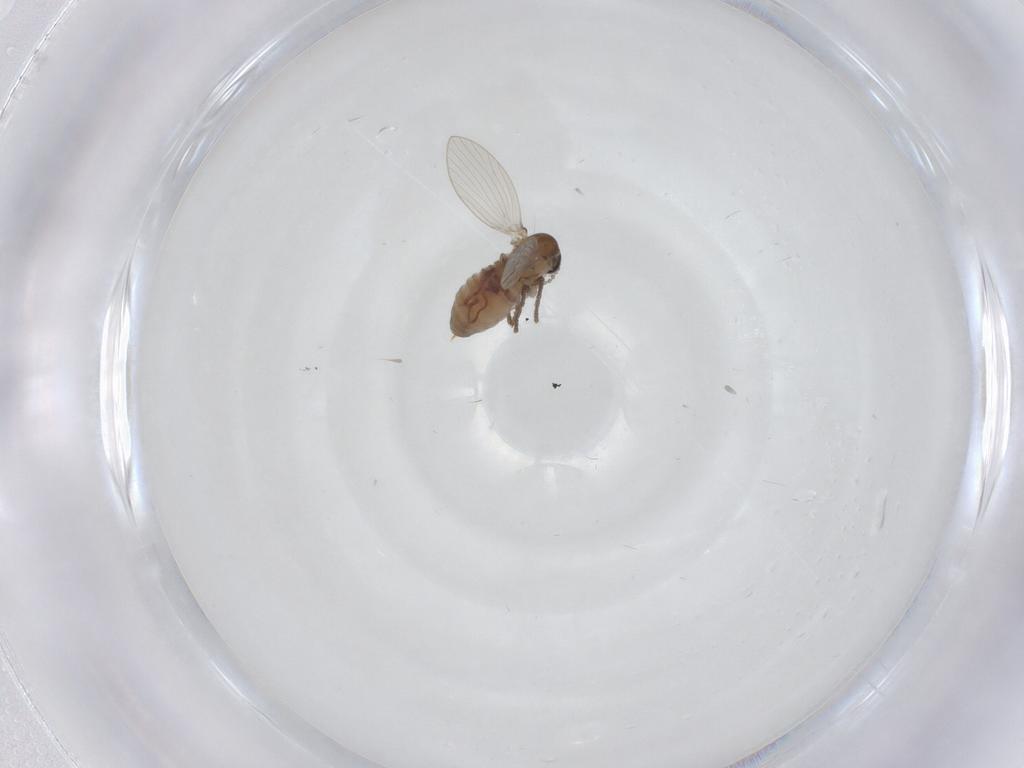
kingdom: Animalia
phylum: Arthropoda
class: Insecta
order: Diptera
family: Psychodidae
